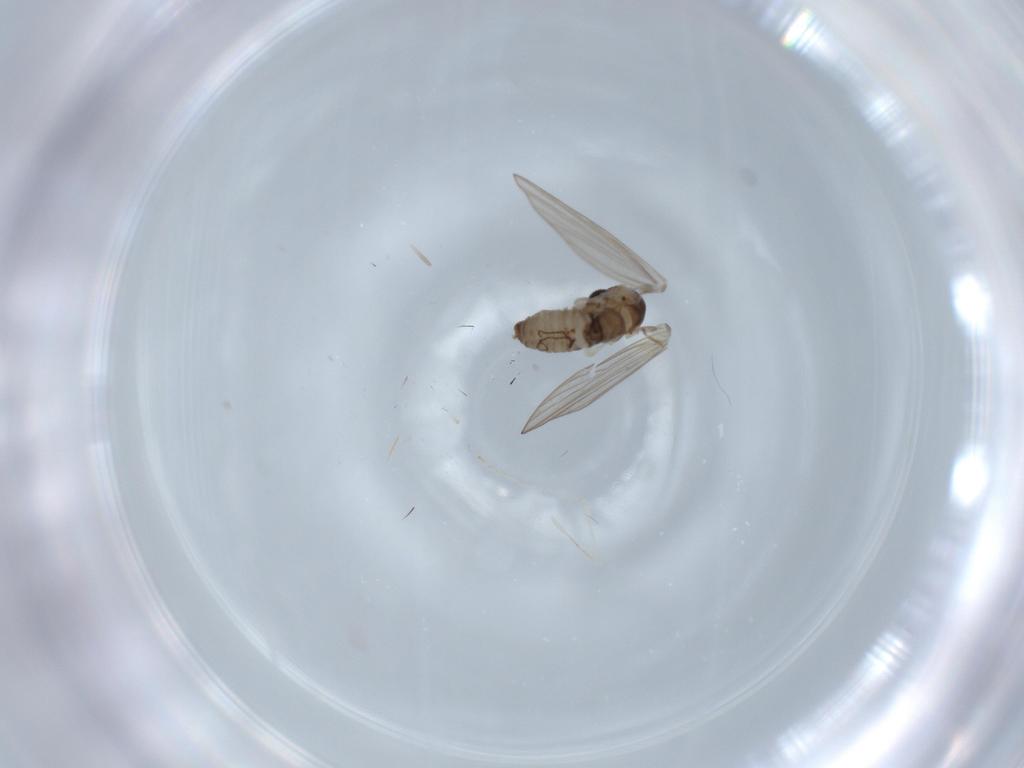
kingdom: Animalia
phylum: Arthropoda
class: Insecta
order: Diptera
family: Psychodidae
